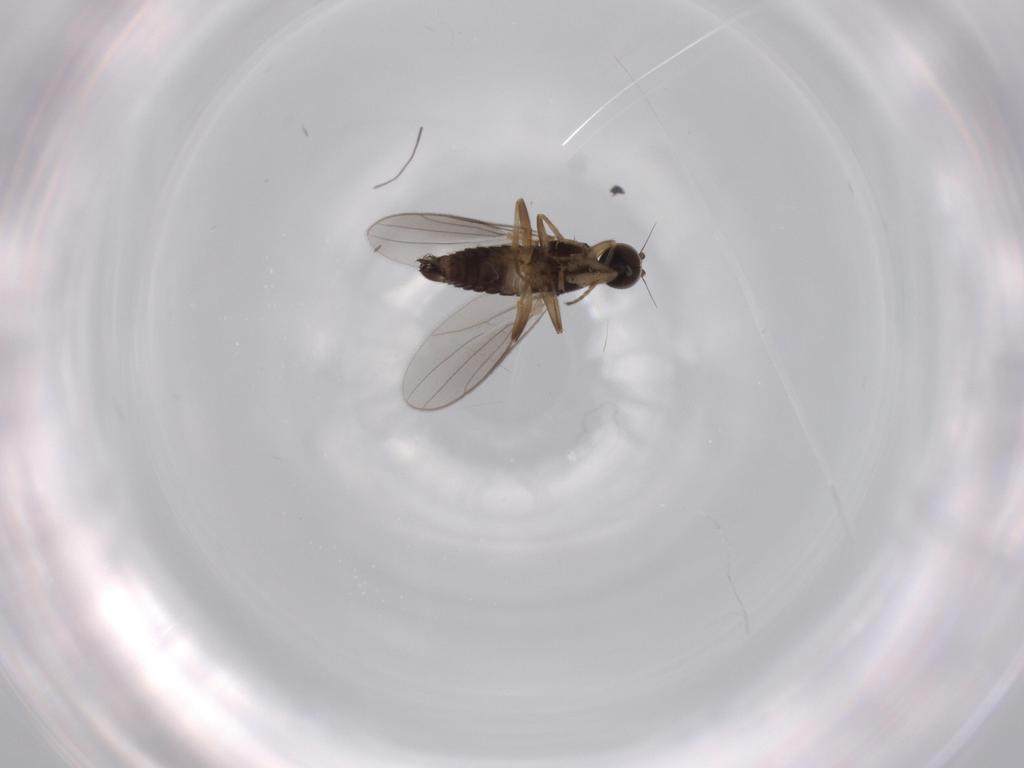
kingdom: Animalia
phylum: Arthropoda
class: Insecta
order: Diptera
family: Hybotidae
